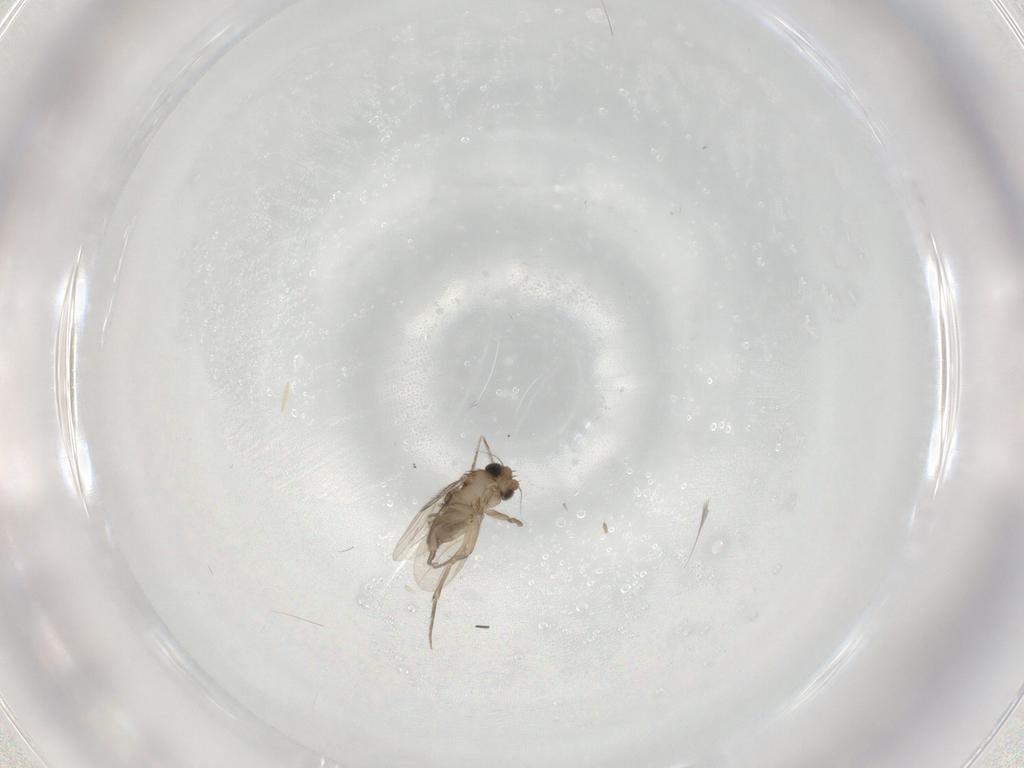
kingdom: Animalia
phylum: Arthropoda
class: Insecta
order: Diptera
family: Phoridae
